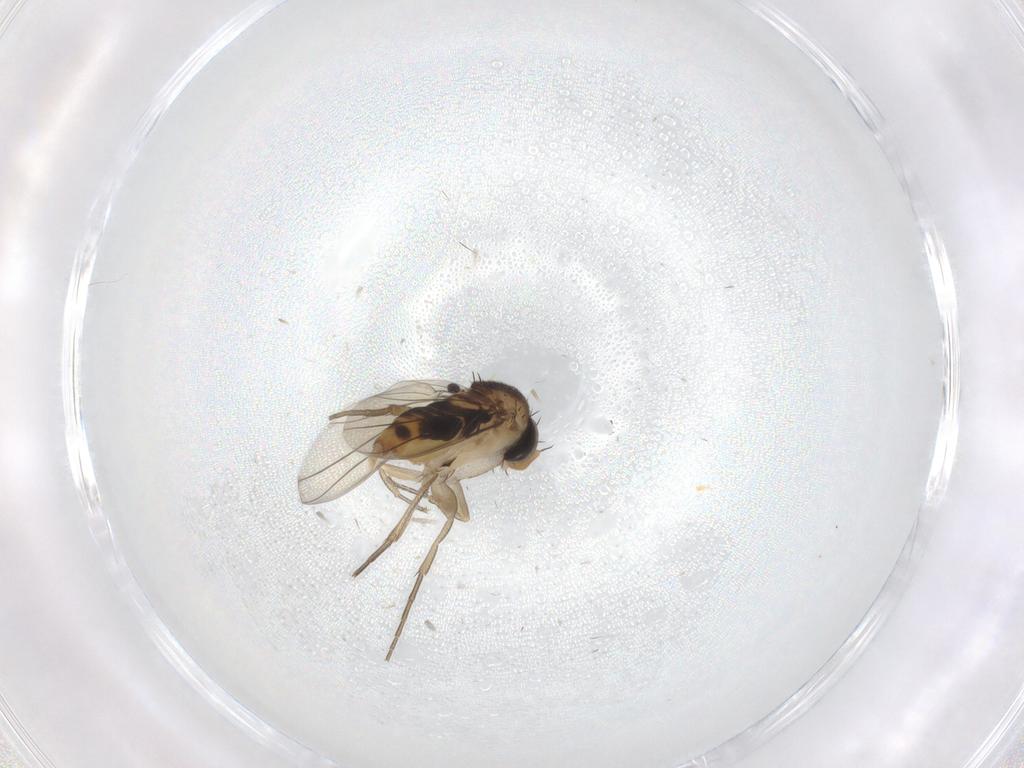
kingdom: Animalia
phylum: Arthropoda
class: Insecta
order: Diptera
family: Phoridae
